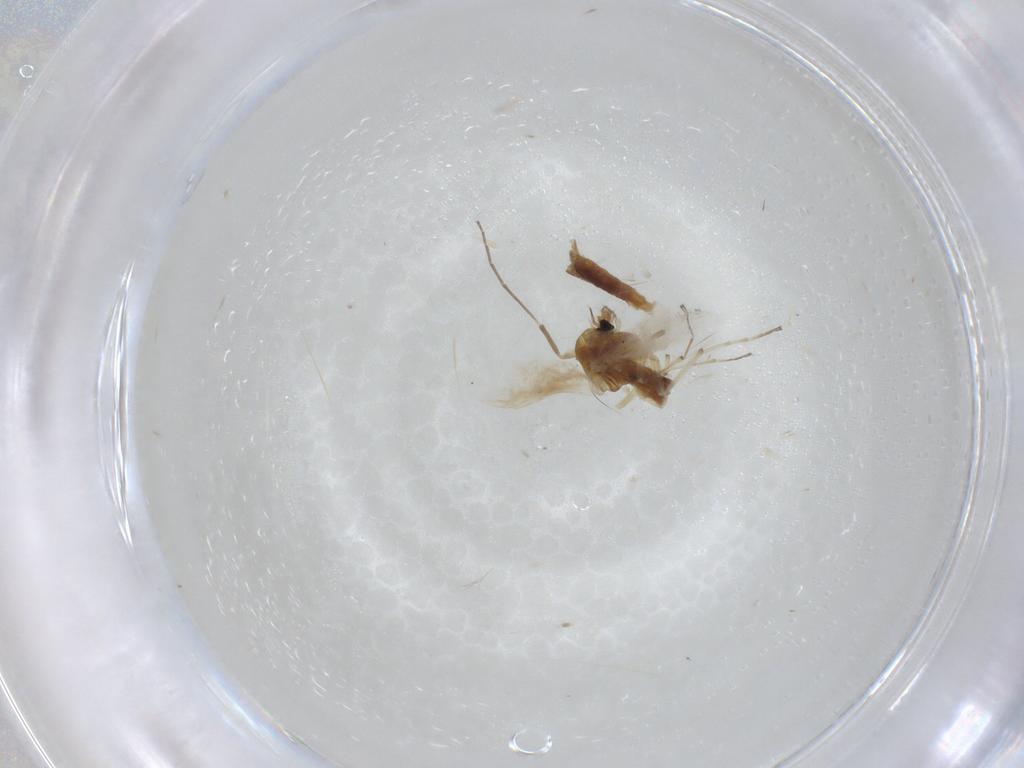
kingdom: Animalia
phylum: Arthropoda
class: Insecta
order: Diptera
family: Chironomidae
